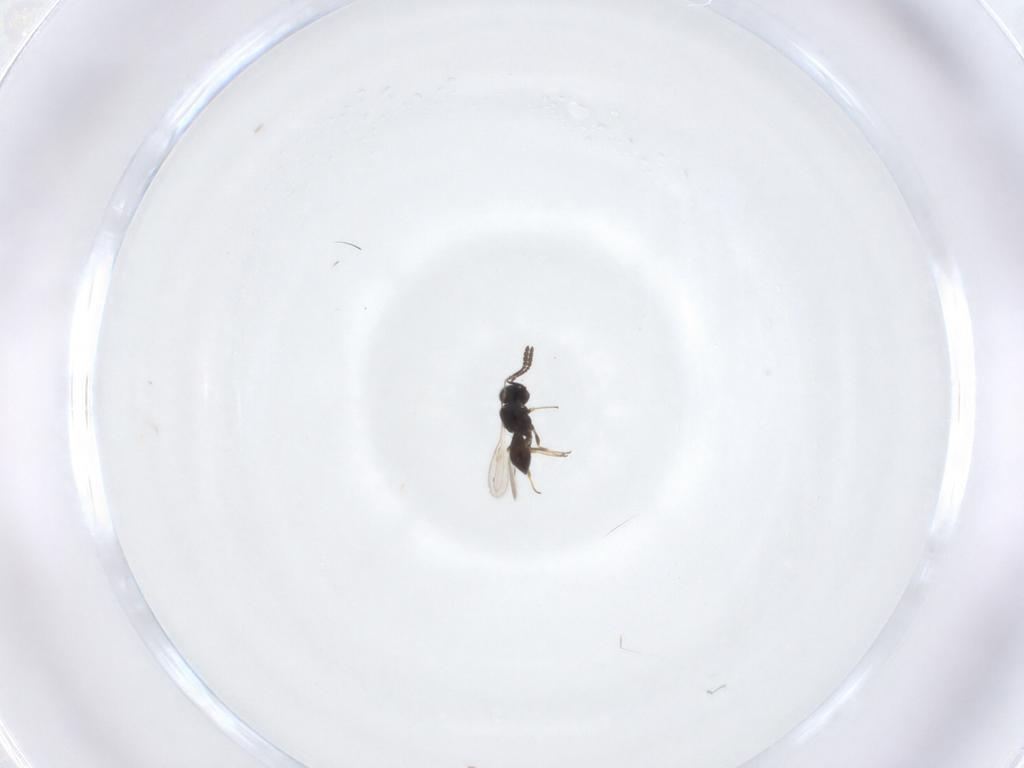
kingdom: Animalia
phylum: Arthropoda
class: Insecta
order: Hymenoptera
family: Scelionidae
